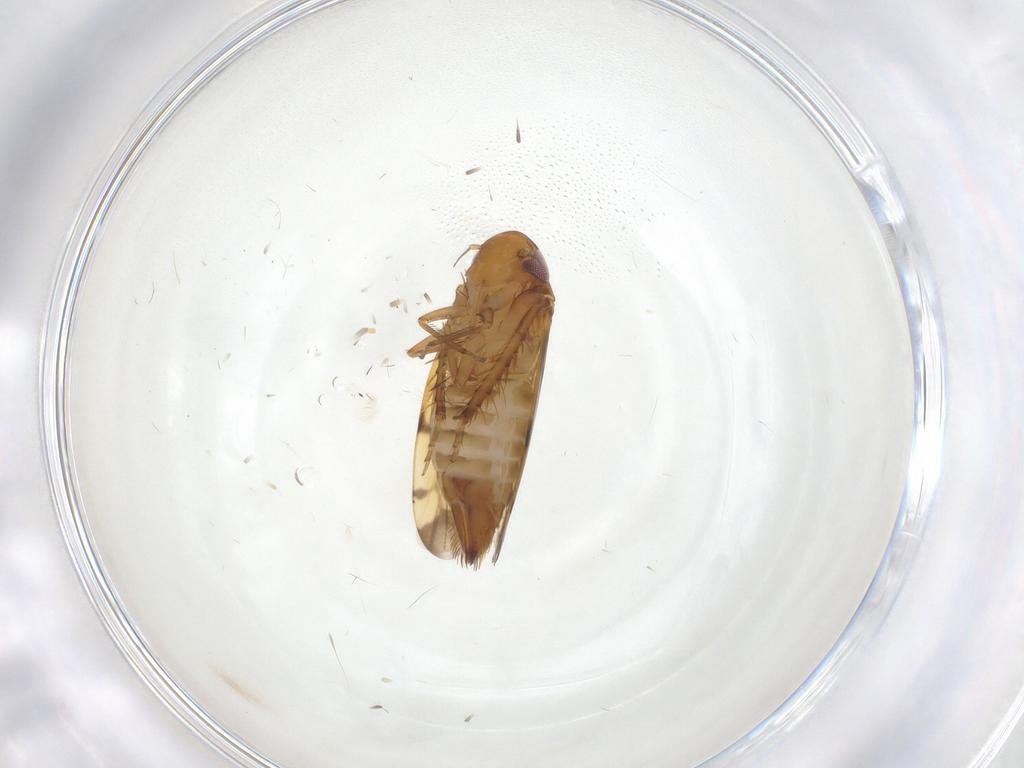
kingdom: Animalia
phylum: Arthropoda
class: Insecta
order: Hemiptera
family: Cicadellidae
